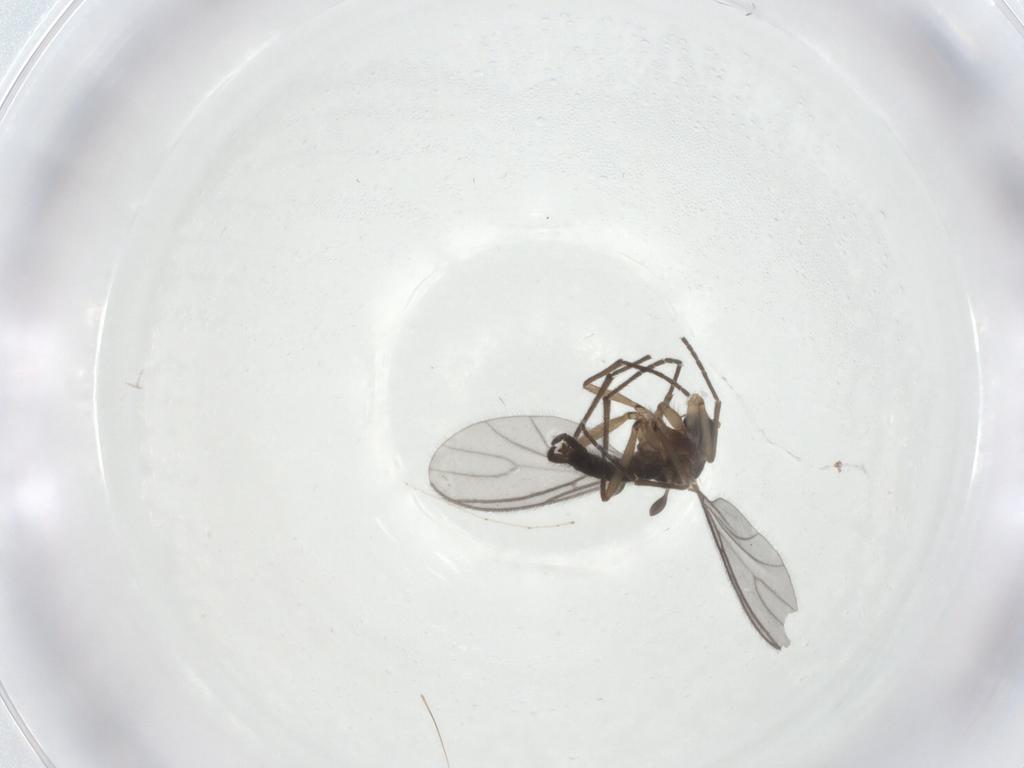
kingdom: Animalia
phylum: Arthropoda
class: Insecta
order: Diptera
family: Sciaridae
